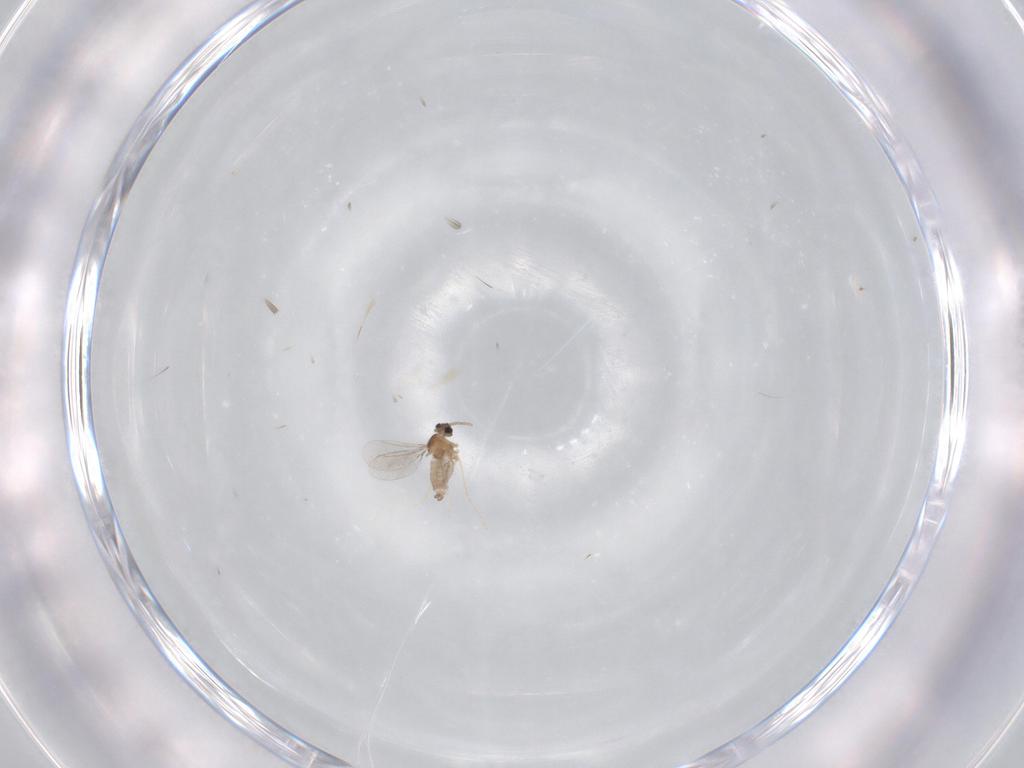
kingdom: Animalia
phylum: Arthropoda
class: Insecta
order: Diptera
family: Cecidomyiidae
